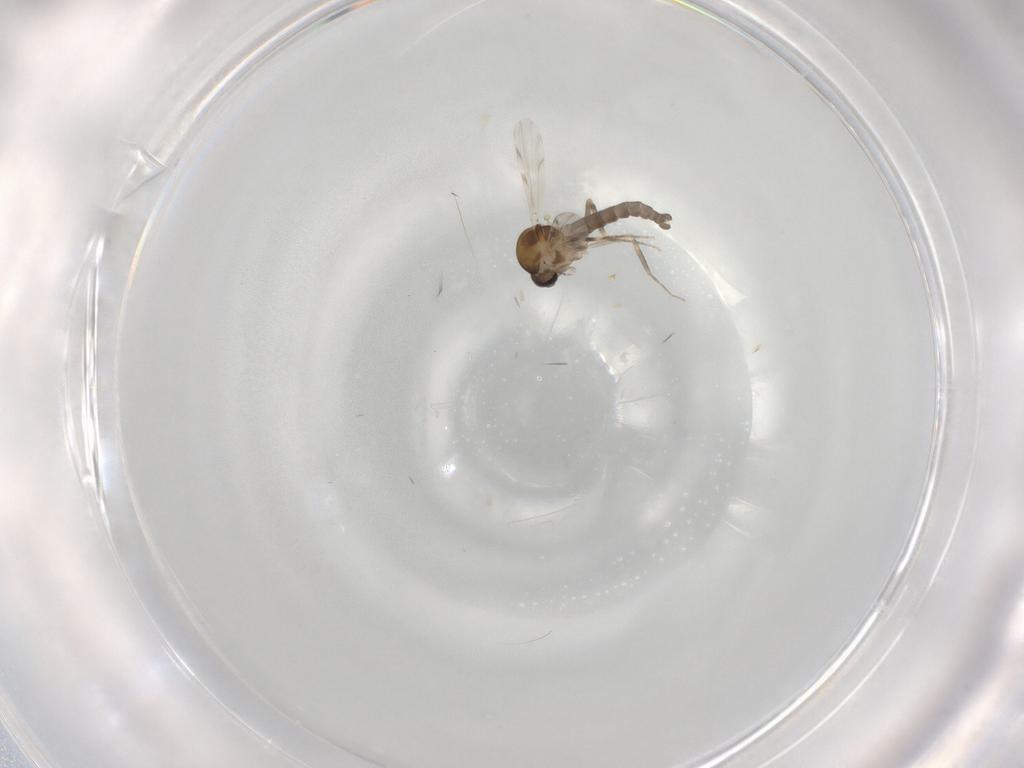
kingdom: Animalia
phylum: Arthropoda
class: Insecta
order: Diptera
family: Ceratopogonidae
